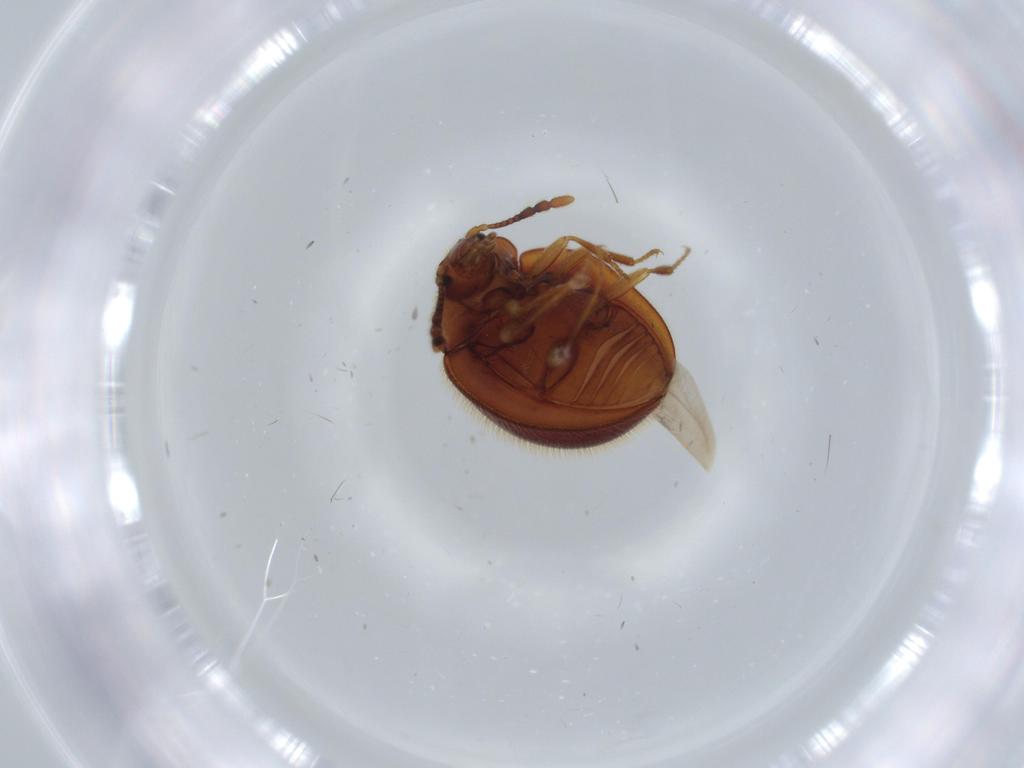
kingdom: Animalia
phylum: Arthropoda
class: Insecta
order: Coleoptera
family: Anamorphidae
